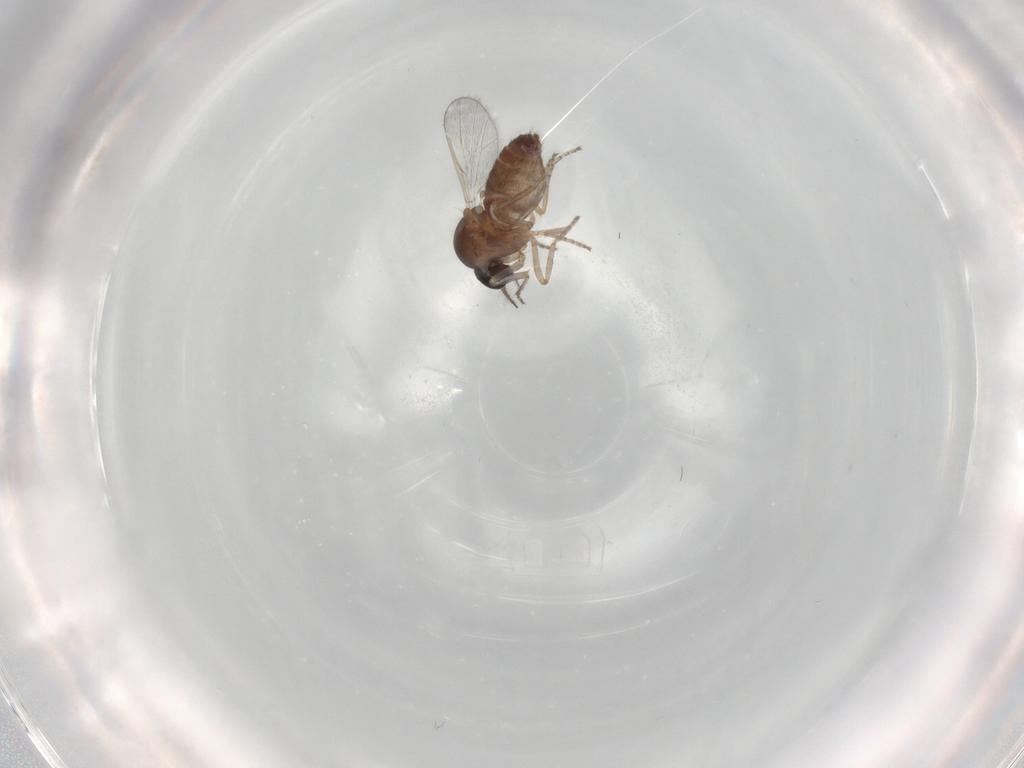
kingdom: Animalia
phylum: Arthropoda
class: Insecta
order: Diptera
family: Ceratopogonidae
